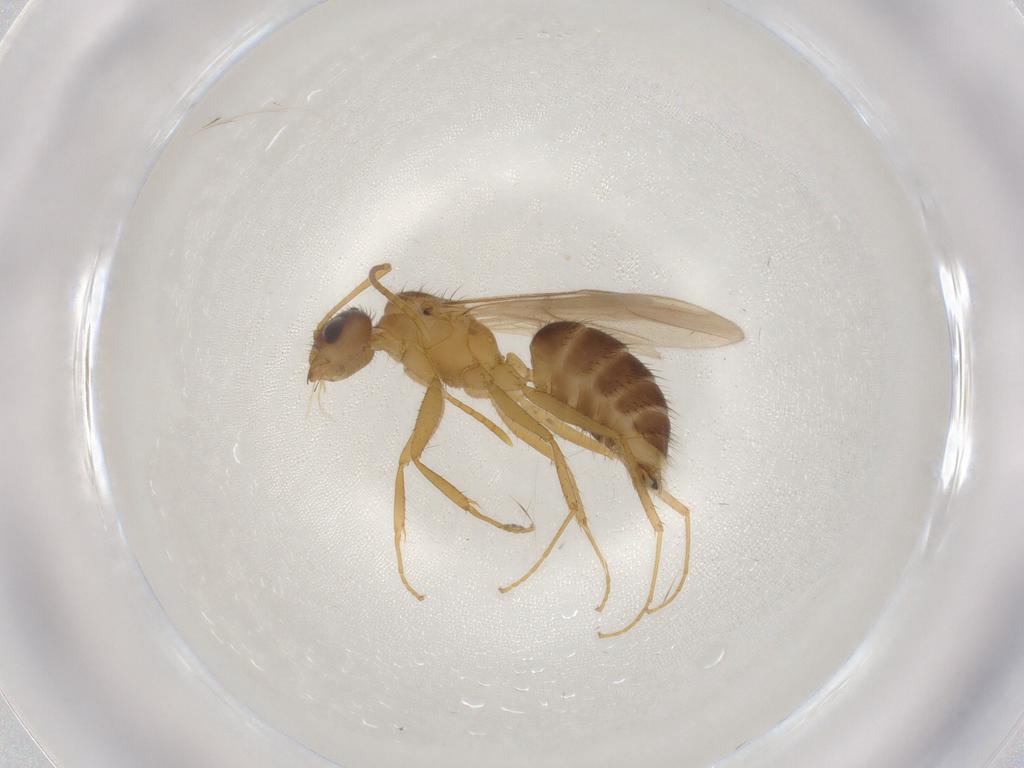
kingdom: Animalia
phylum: Arthropoda
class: Insecta
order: Hymenoptera
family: Formicidae
